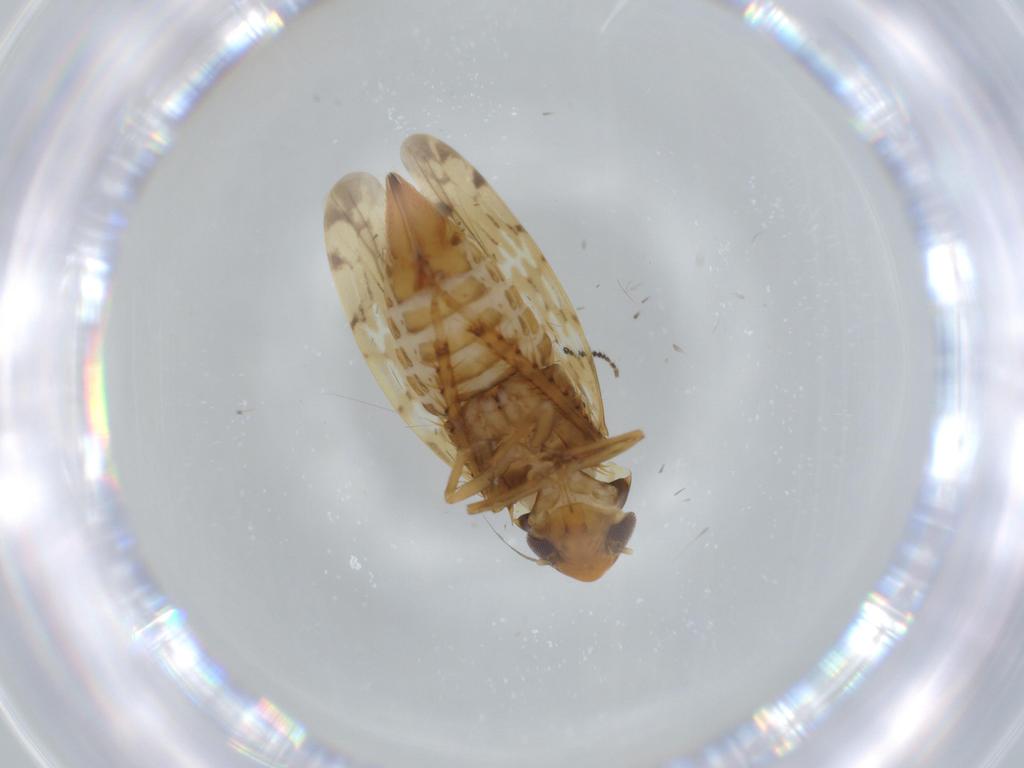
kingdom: Animalia
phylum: Arthropoda
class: Insecta
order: Hemiptera
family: Cicadellidae
